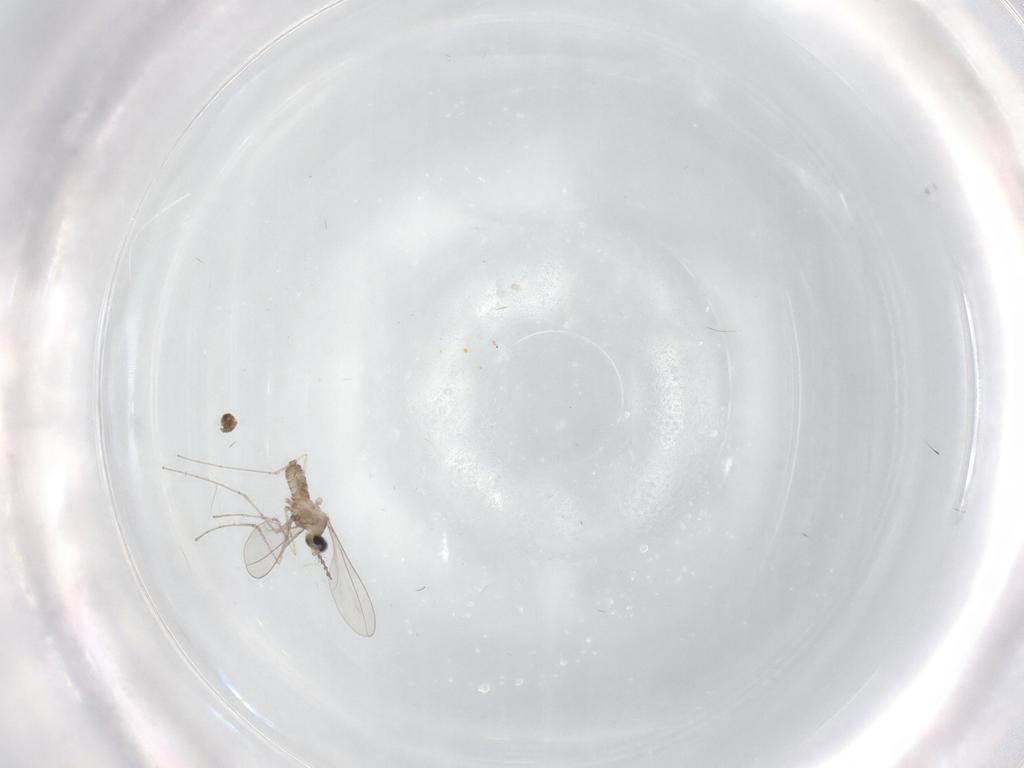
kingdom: Animalia
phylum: Arthropoda
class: Insecta
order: Diptera
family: Cecidomyiidae
